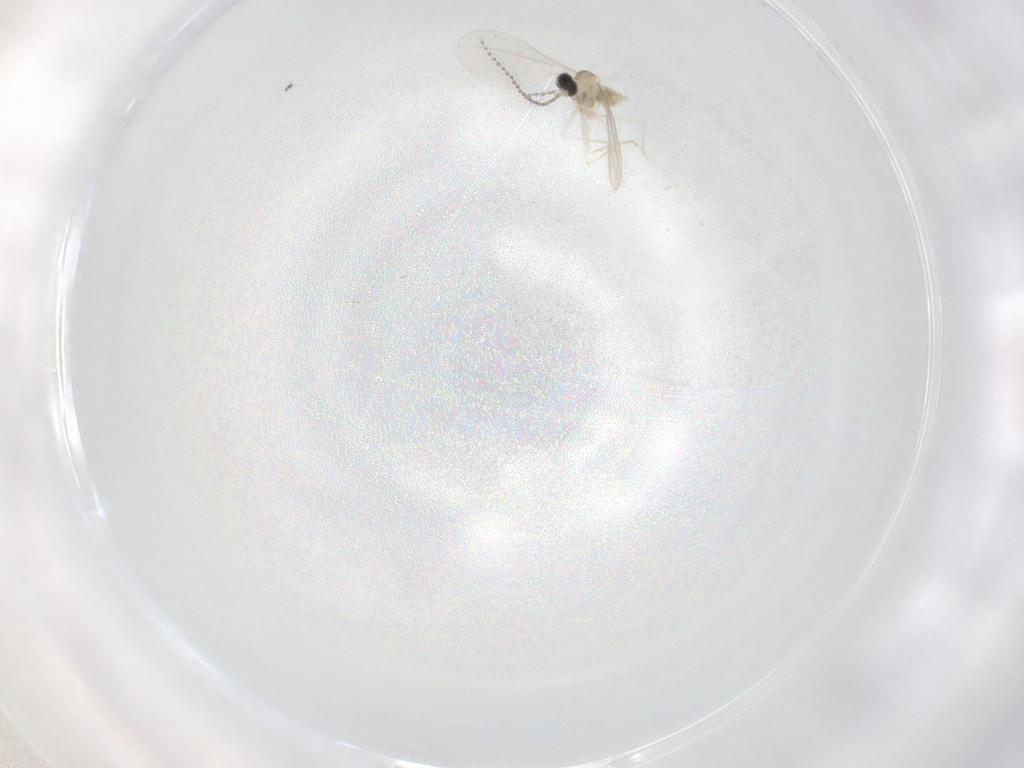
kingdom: Animalia
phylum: Arthropoda
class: Insecta
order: Diptera
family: Cecidomyiidae
